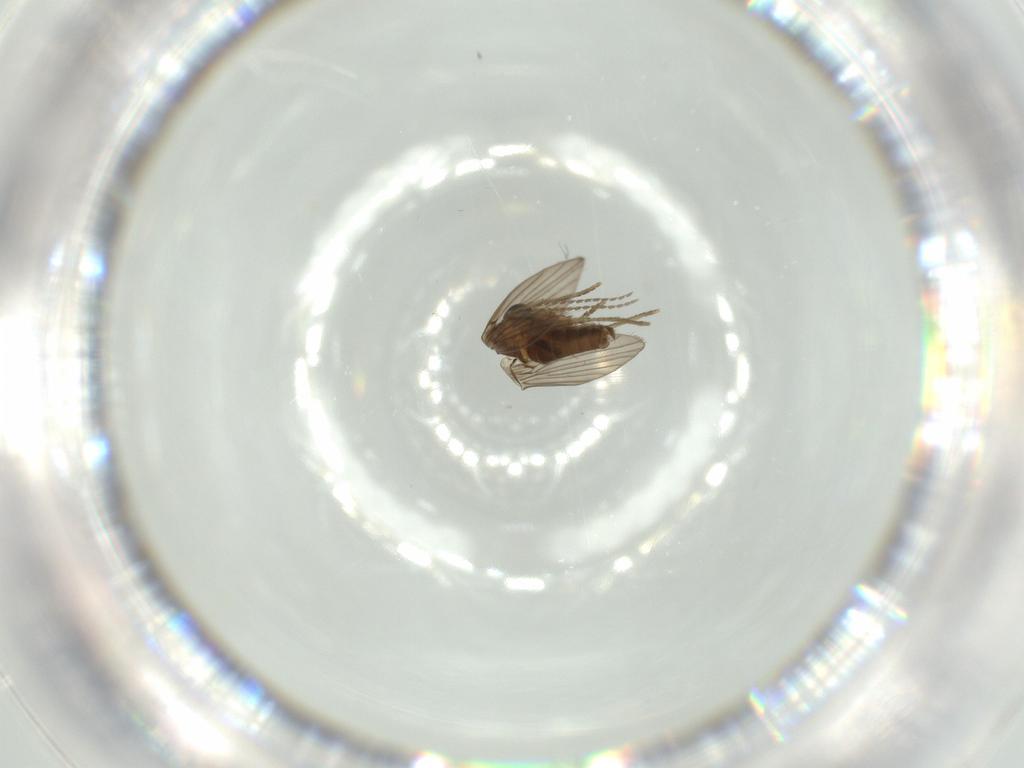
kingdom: Animalia
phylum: Arthropoda
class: Insecta
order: Diptera
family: Psychodidae
